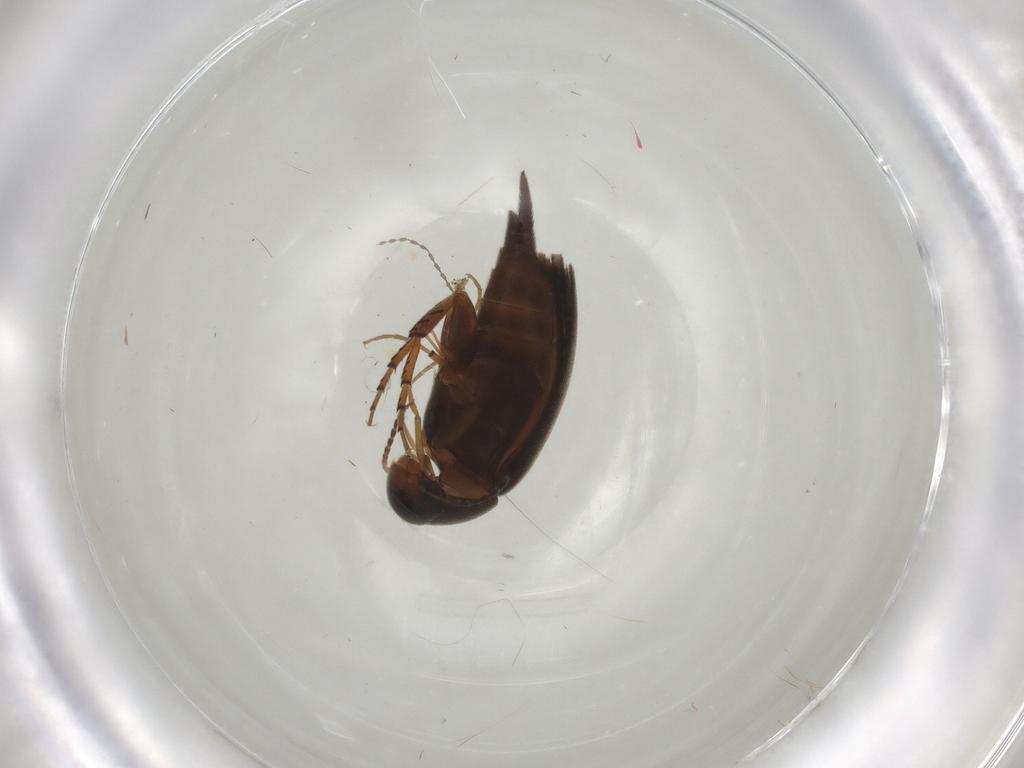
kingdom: Animalia
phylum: Arthropoda
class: Insecta
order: Coleoptera
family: Mordellidae
